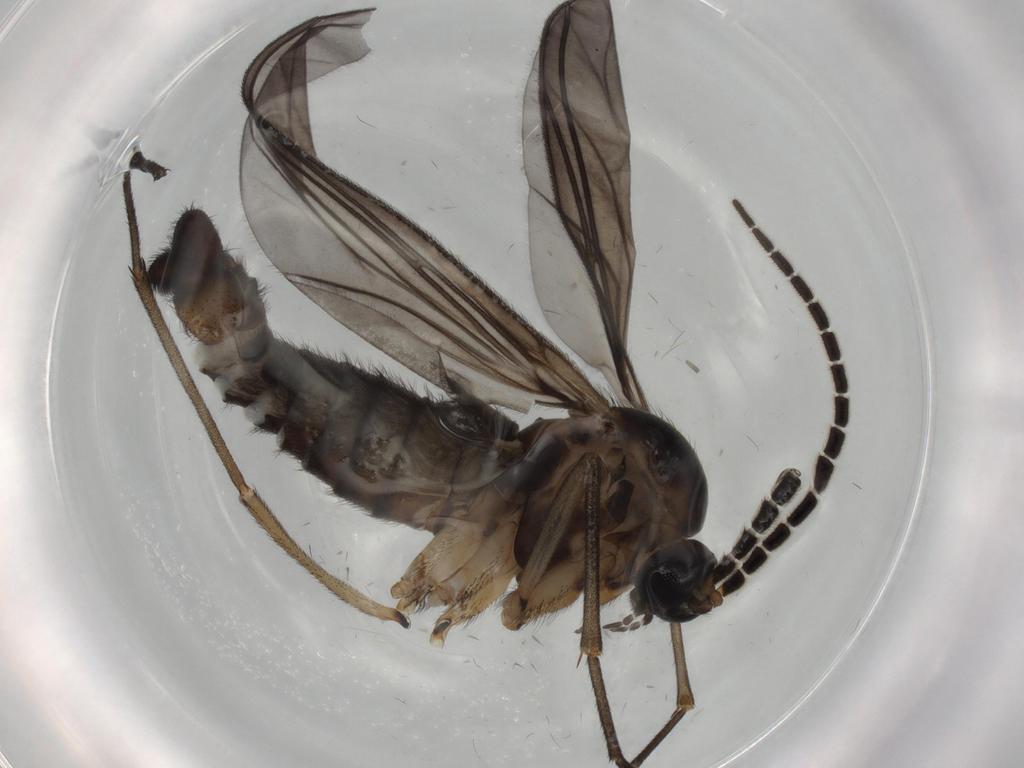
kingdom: Animalia
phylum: Arthropoda
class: Insecta
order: Diptera
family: Sciaridae
